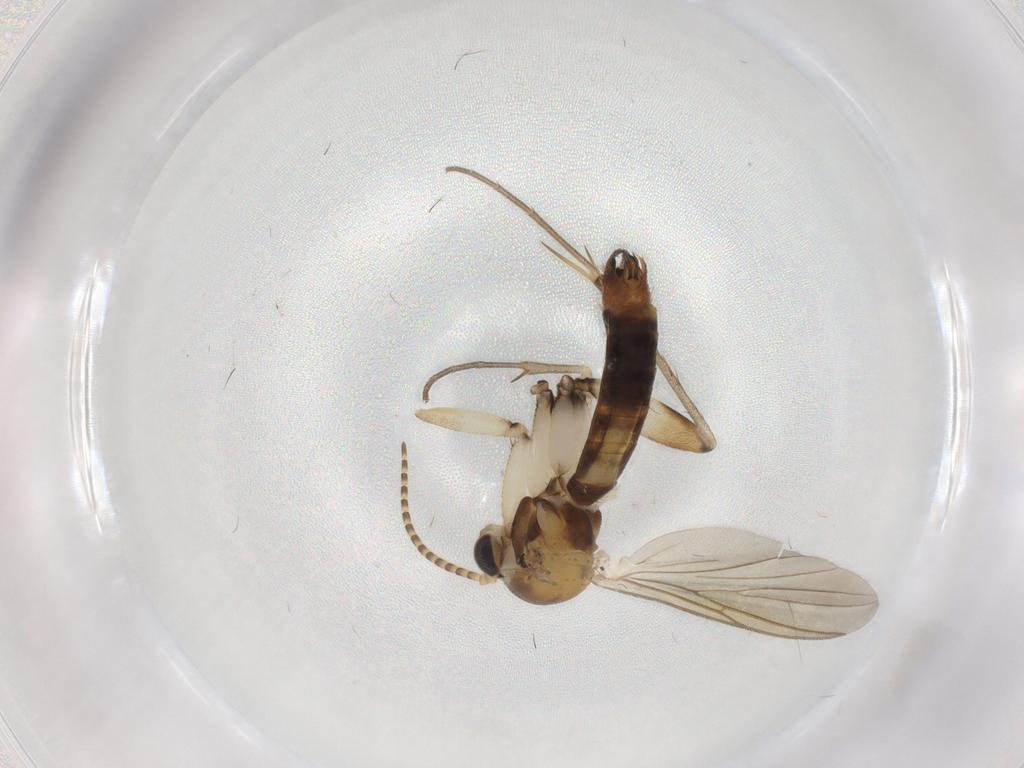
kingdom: Animalia
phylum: Arthropoda
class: Insecta
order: Diptera
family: Mycetophilidae
